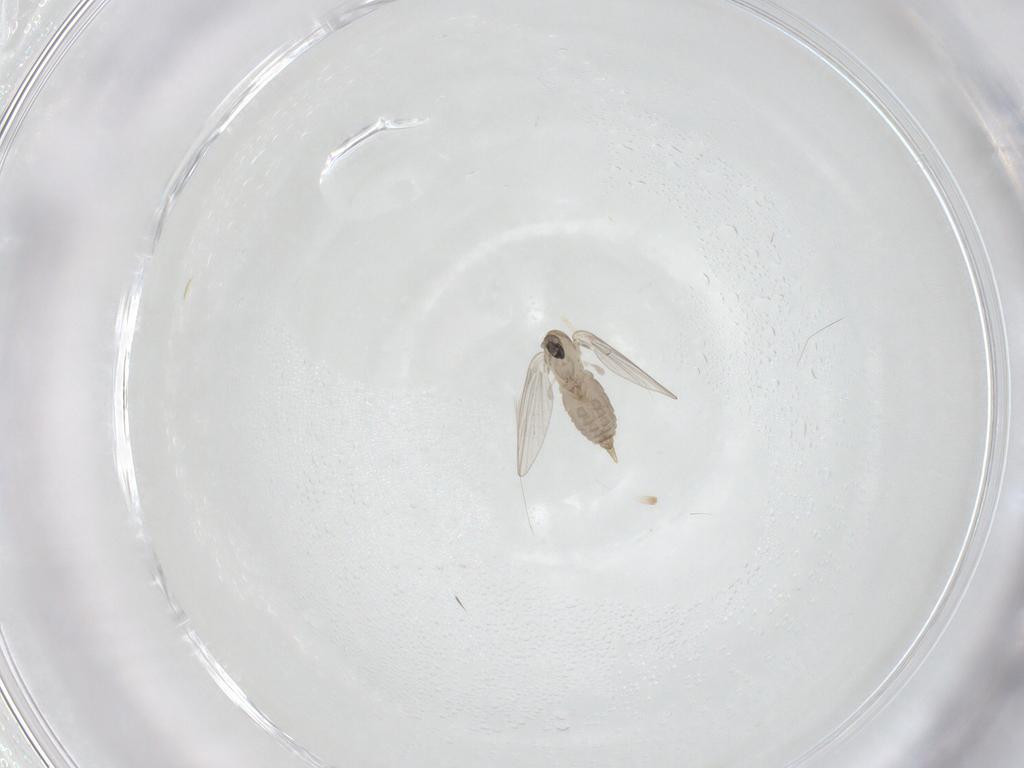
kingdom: Animalia
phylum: Arthropoda
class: Insecta
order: Diptera
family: Psychodidae
